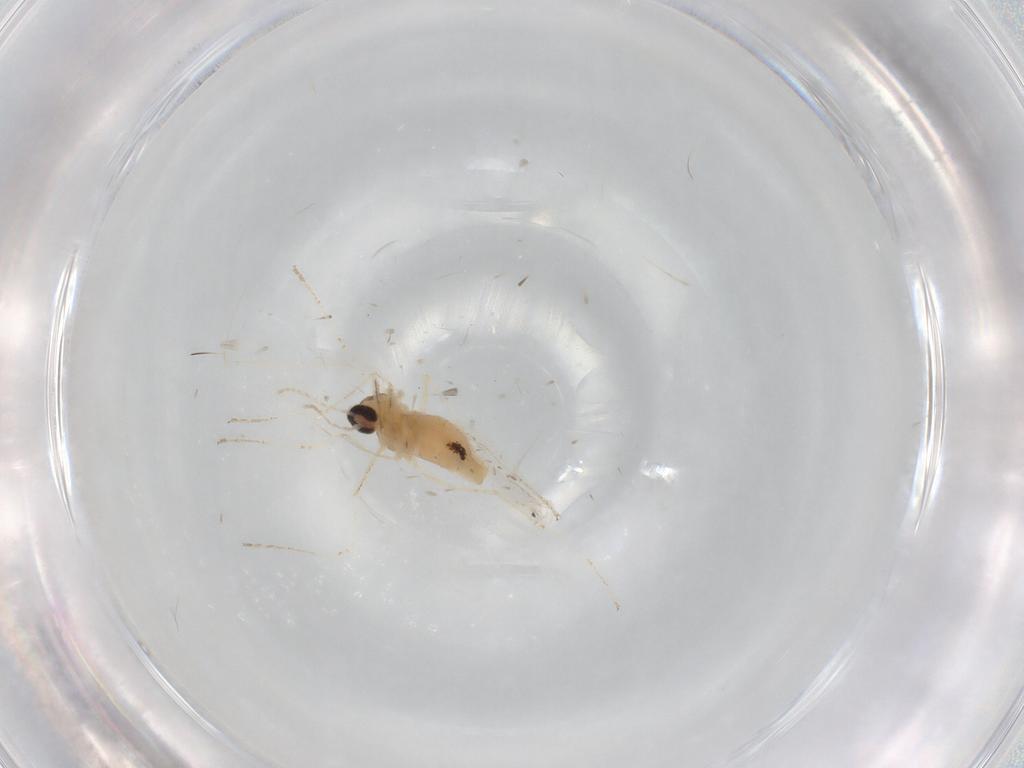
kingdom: Animalia
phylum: Arthropoda
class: Insecta
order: Diptera
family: Cecidomyiidae
